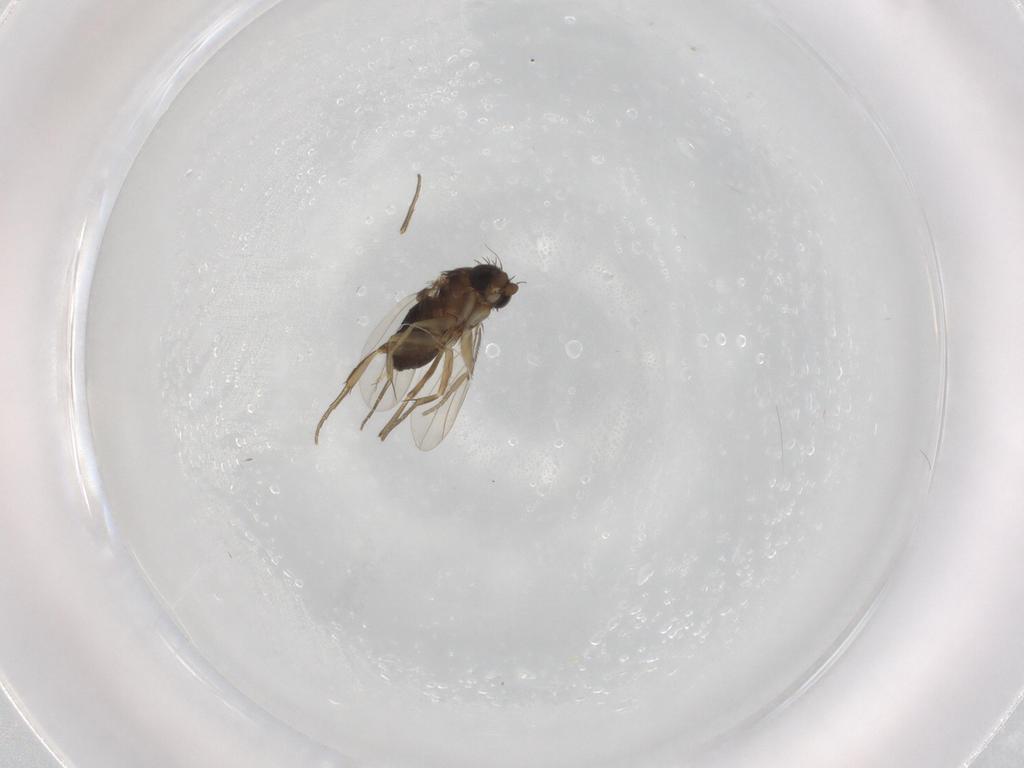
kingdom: Animalia
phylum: Arthropoda
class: Insecta
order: Diptera
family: Phoridae
